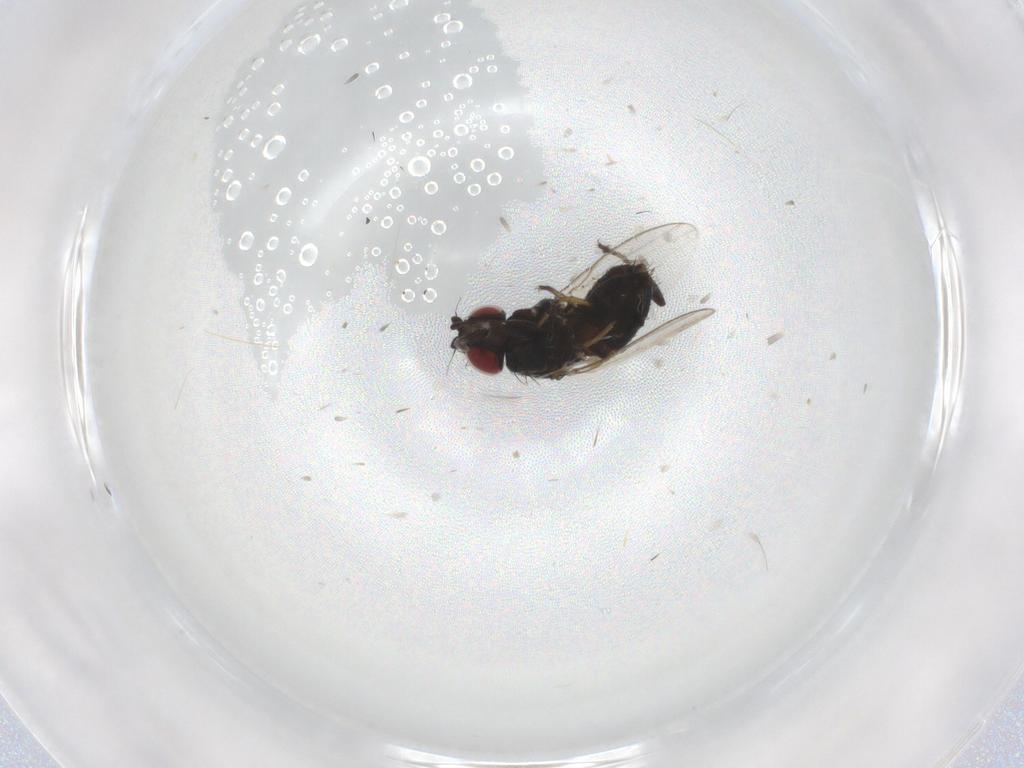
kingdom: Animalia
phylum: Arthropoda
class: Insecta
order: Diptera
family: Milichiidae
